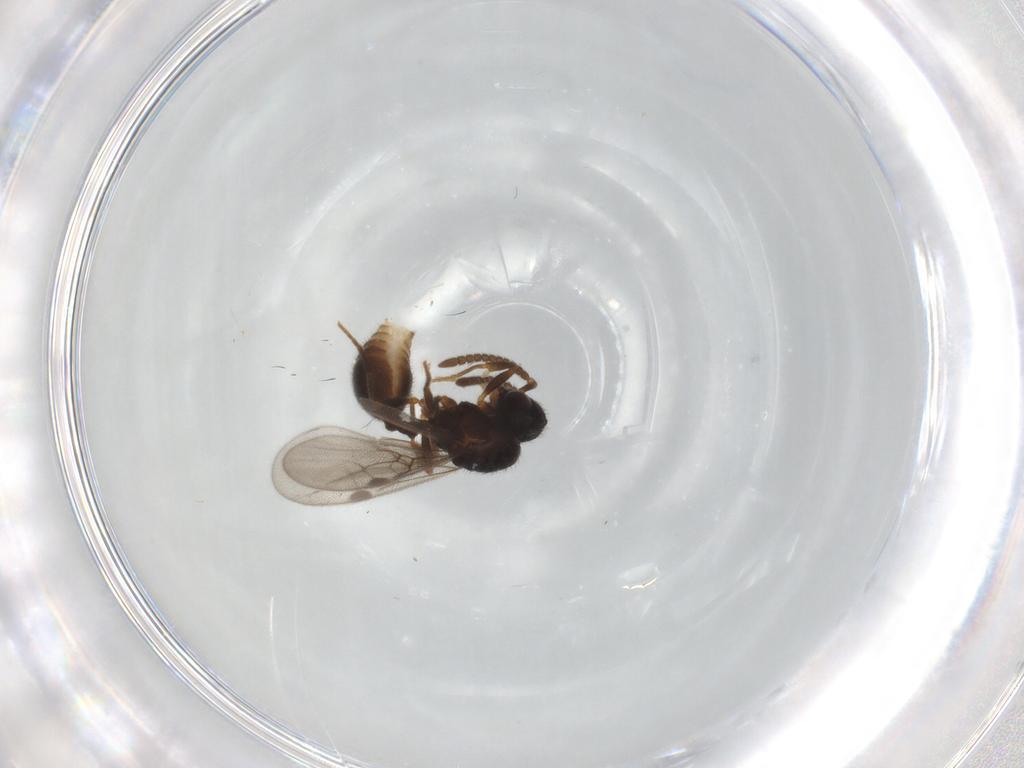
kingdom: Animalia
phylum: Arthropoda
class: Insecta
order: Hymenoptera
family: Formicidae
